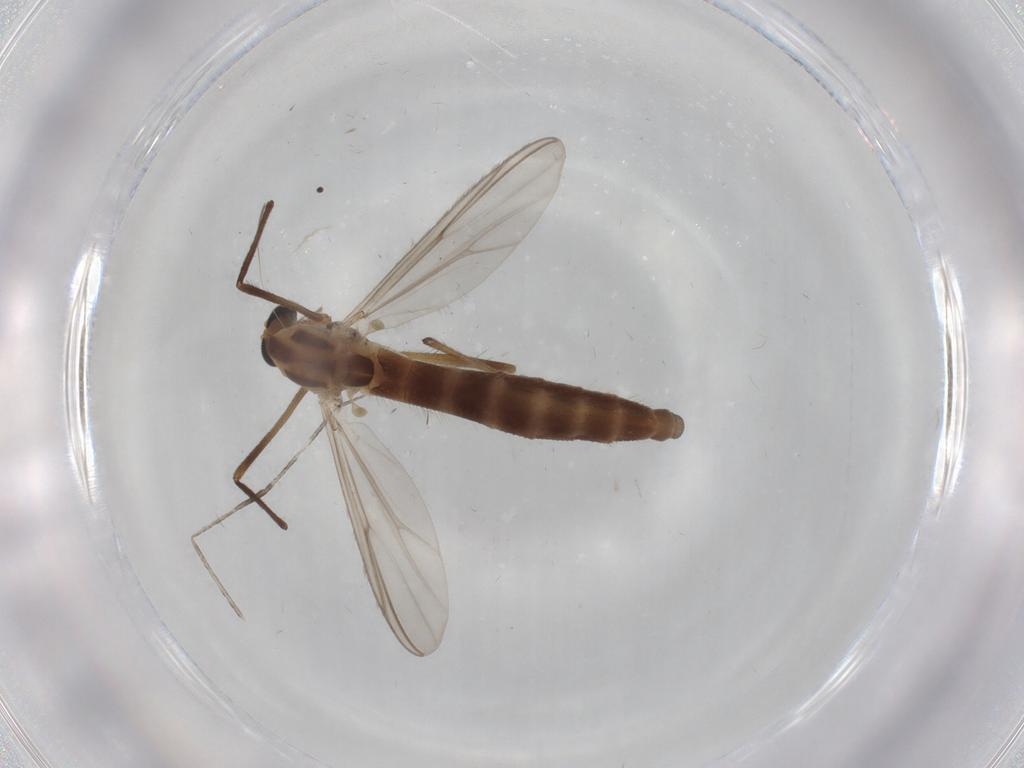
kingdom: Animalia
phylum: Arthropoda
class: Insecta
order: Diptera
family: Chironomidae
